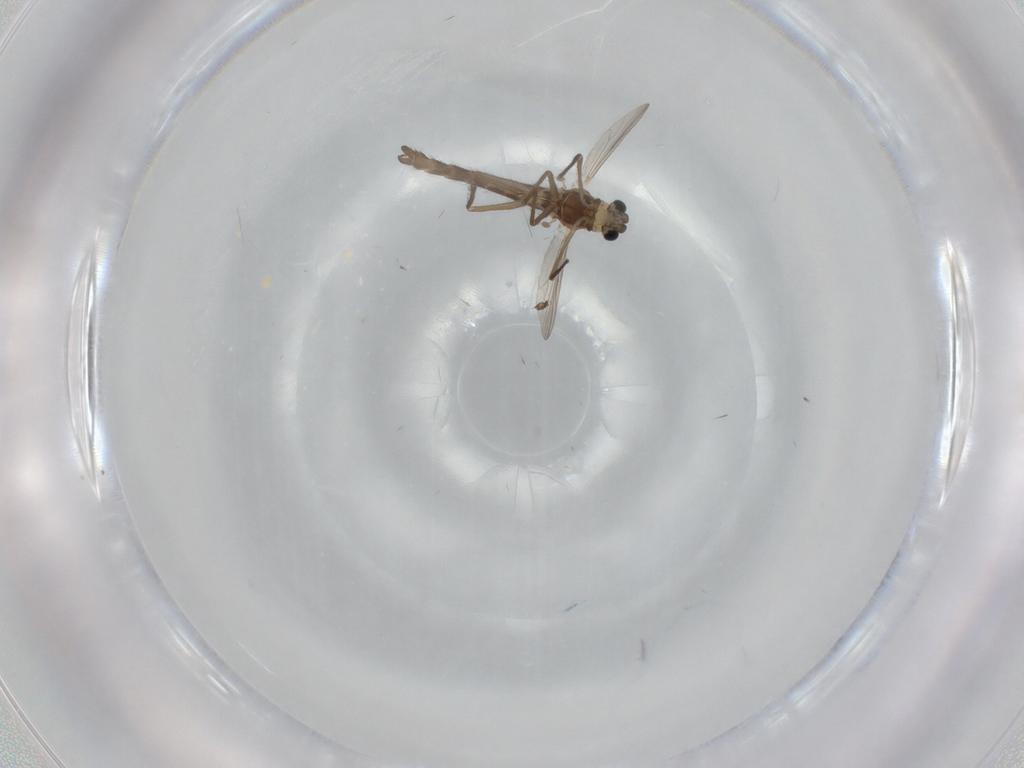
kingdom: Animalia
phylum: Arthropoda
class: Insecta
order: Diptera
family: Chironomidae
